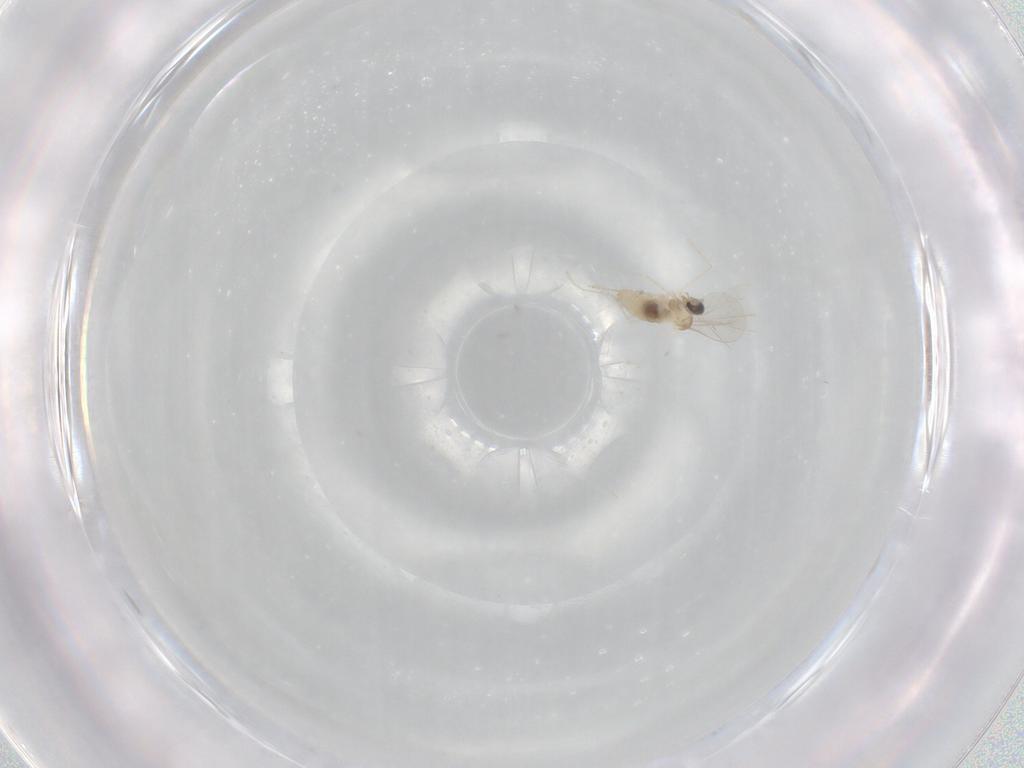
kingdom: Animalia
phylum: Arthropoda
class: Insecta
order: Diptera
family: Cecidomyiidae
